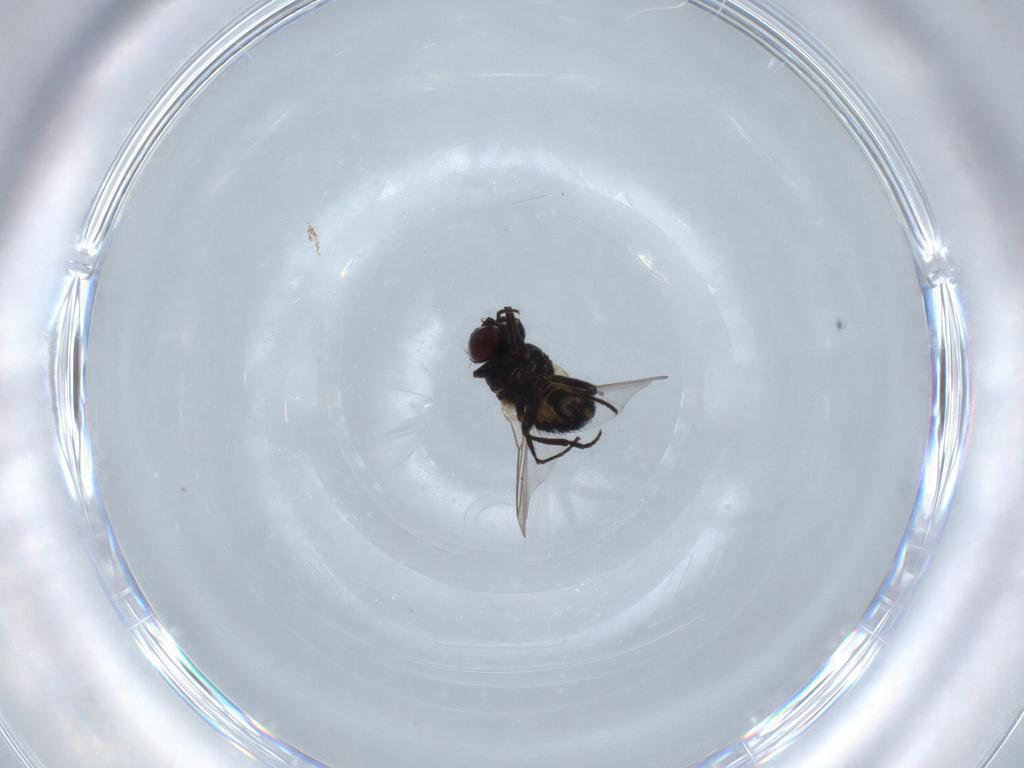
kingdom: Animalia
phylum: Arthropoda
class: Insecta
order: Diptera
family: Agromyzidae
